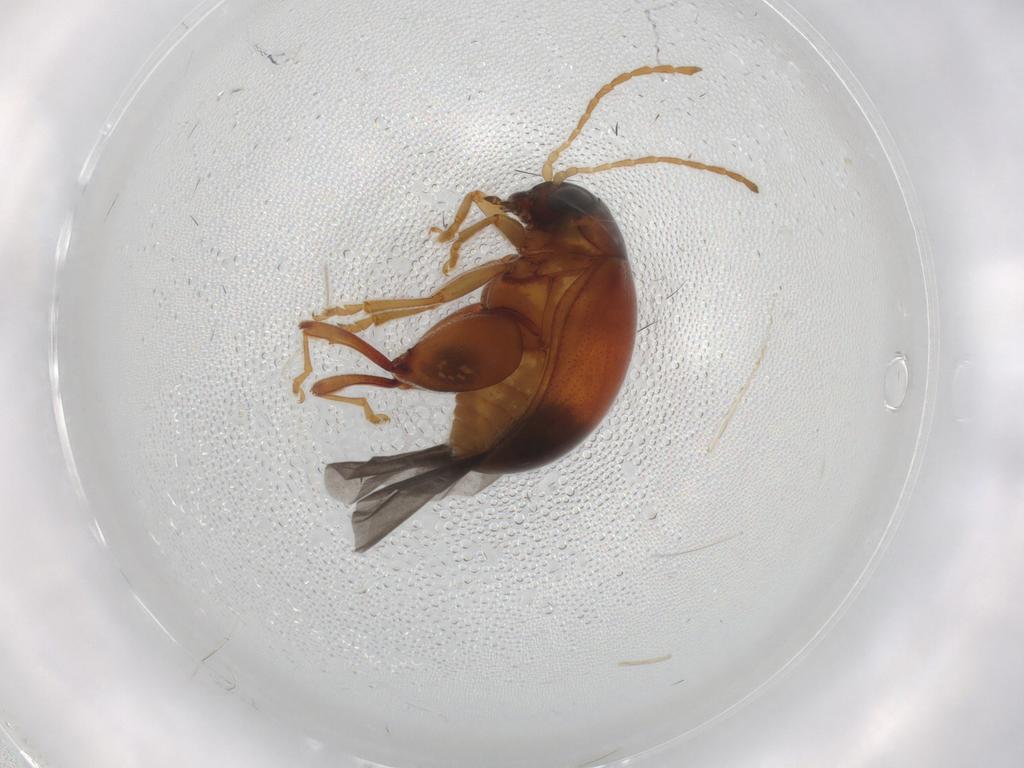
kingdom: Animalia
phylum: Arthropoda
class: Insecta
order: Coleoptera
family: Chrysomelidae
